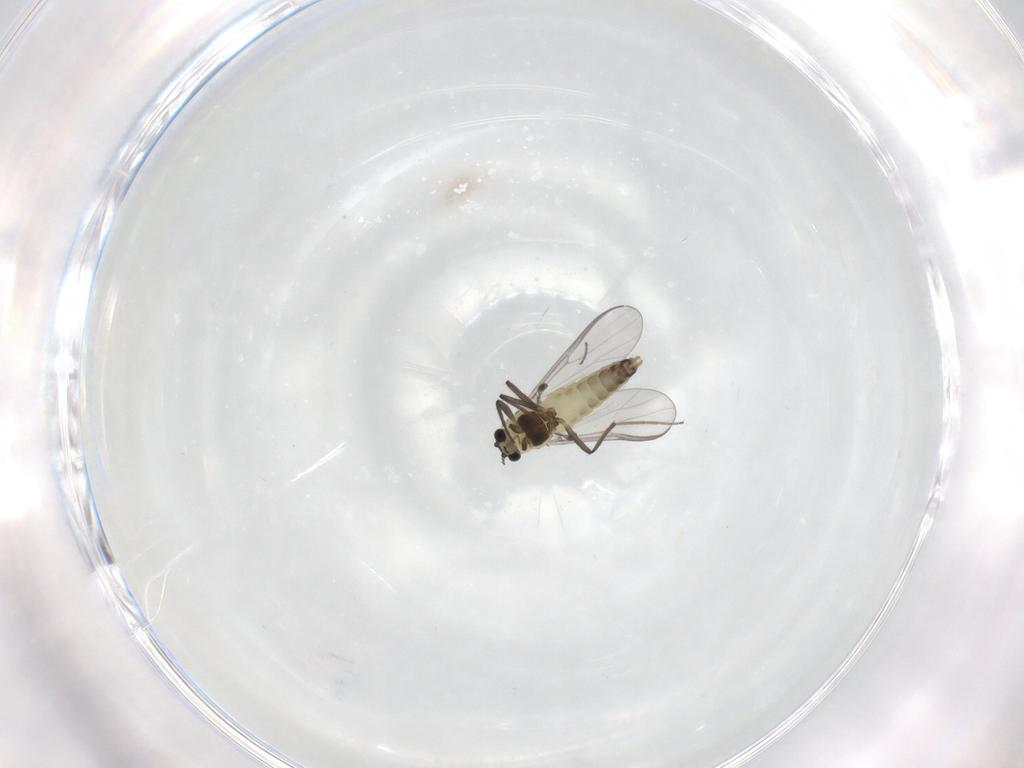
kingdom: Animalia
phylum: Arthropoda
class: Insecta
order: Diptera
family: Chironomidae
